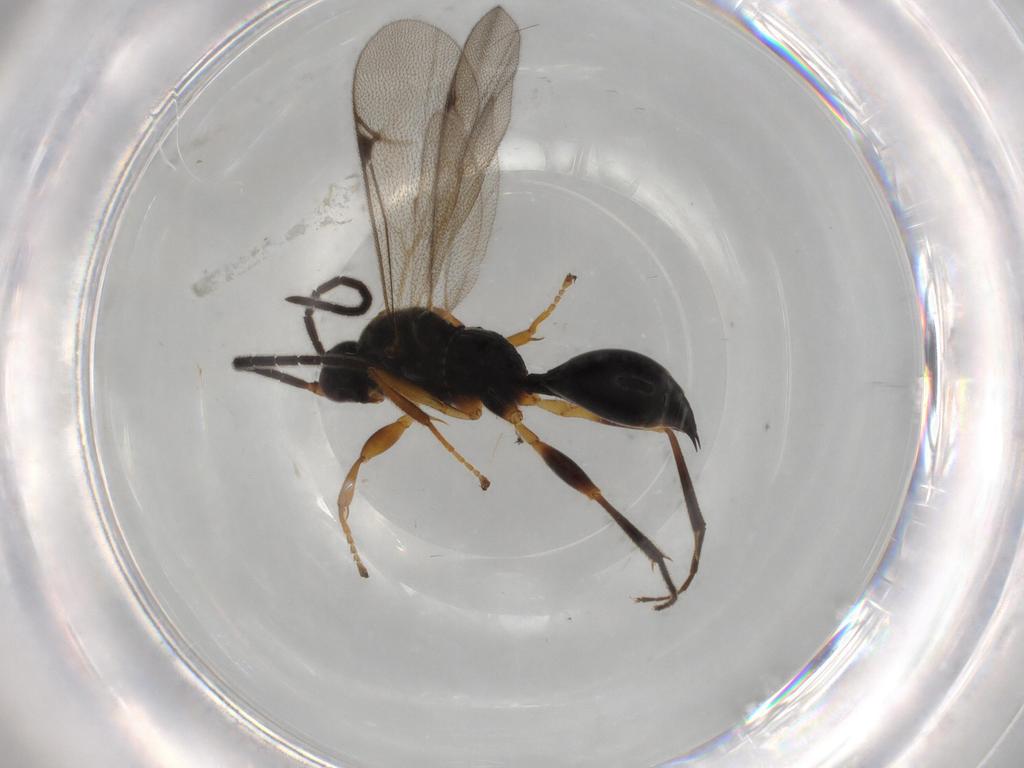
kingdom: Animalia
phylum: Arthropoda
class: Insecta
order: Hymenoptera
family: Proctotrupidae
